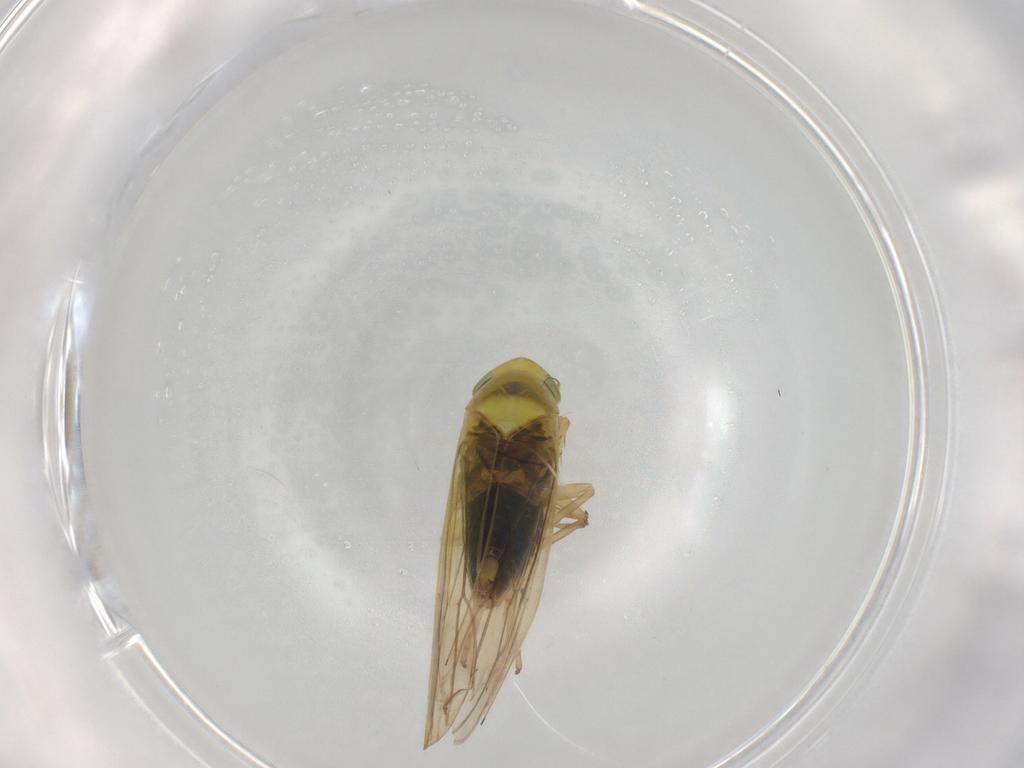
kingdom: Animalia
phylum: Arthropoda
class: Insecta
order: Hemiptera
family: Cicadellidae
